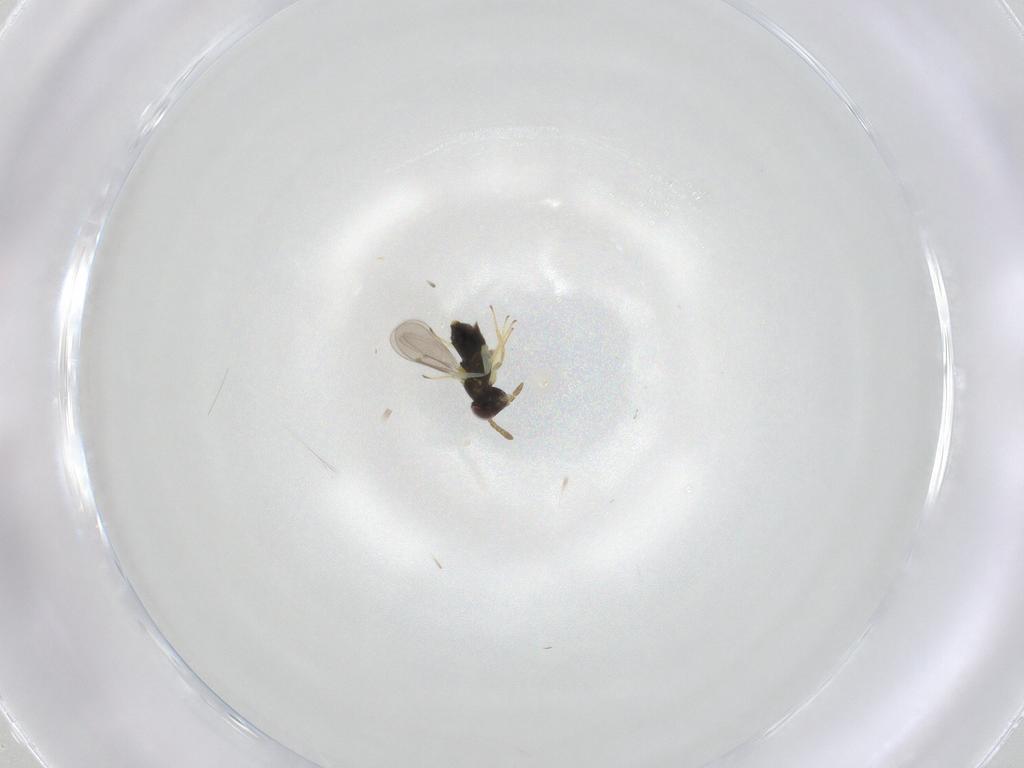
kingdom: Animalia
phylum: Arthropoda
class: Insecta
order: Hymenoptera
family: Aphelinidae
